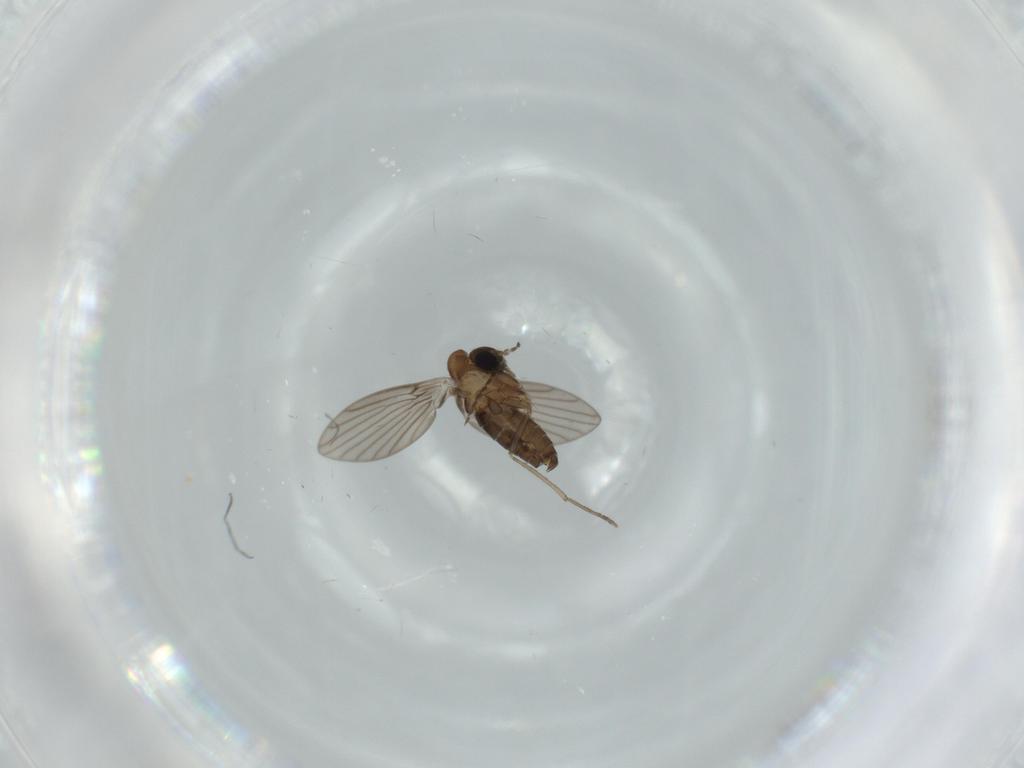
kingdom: Animalia
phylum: Arthropoda
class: Insecta
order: Diptera
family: Psychodidae
